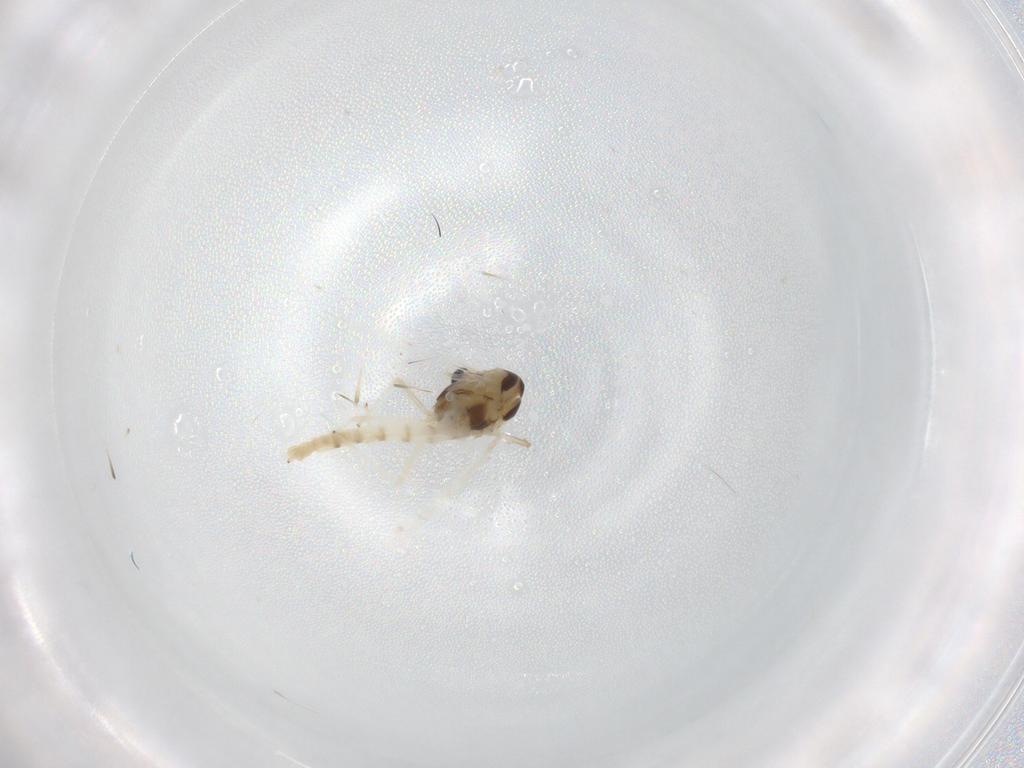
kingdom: Animalia
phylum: Arthropoda
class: Insecta
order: Diptera
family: Chironomidae
